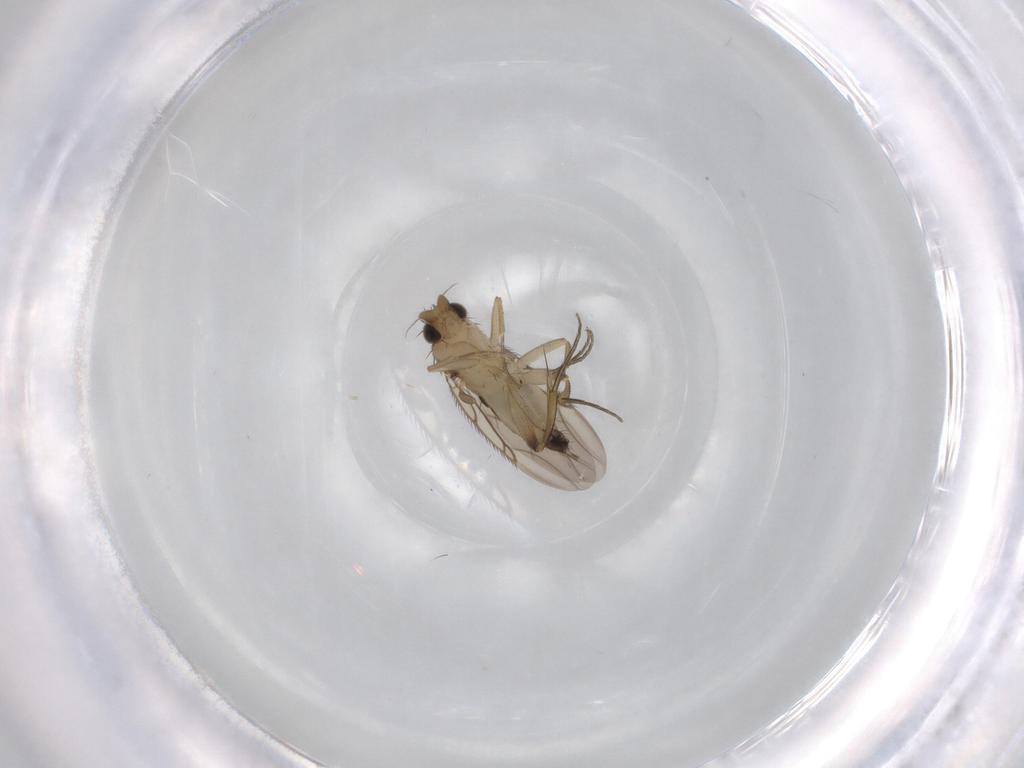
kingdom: Animalia
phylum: Arthropoda
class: Insecta
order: Diptera
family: Phoridae
